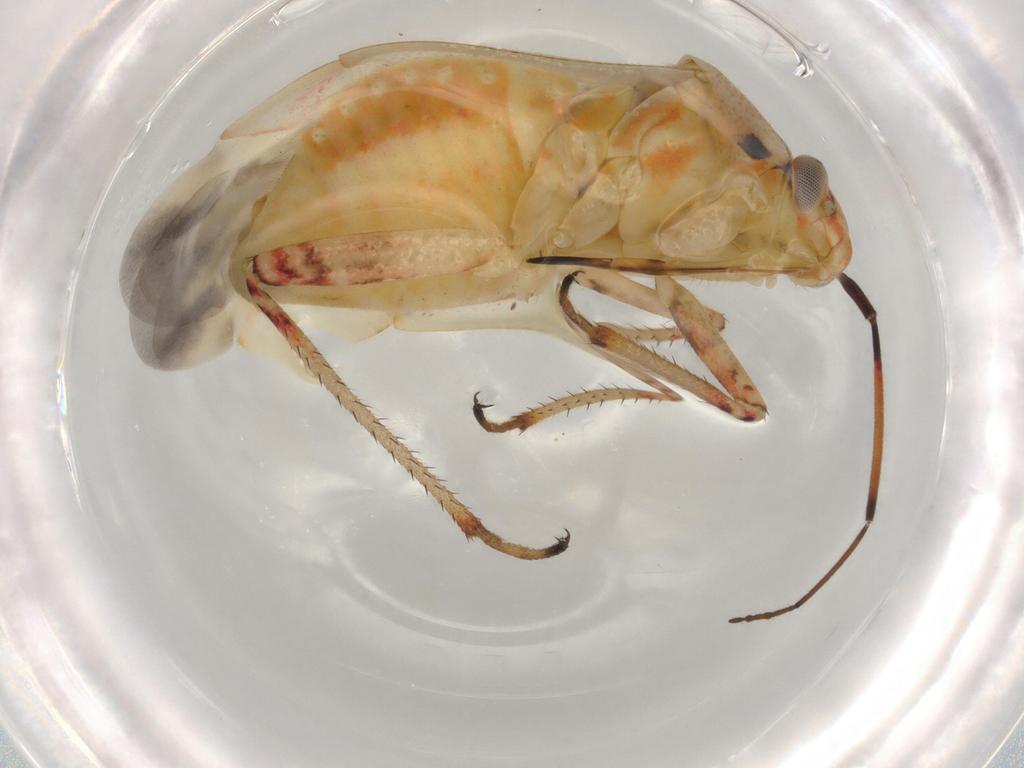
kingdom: Animalia
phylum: Arthropoda
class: Insecta
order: Hemiptera
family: Miridae
